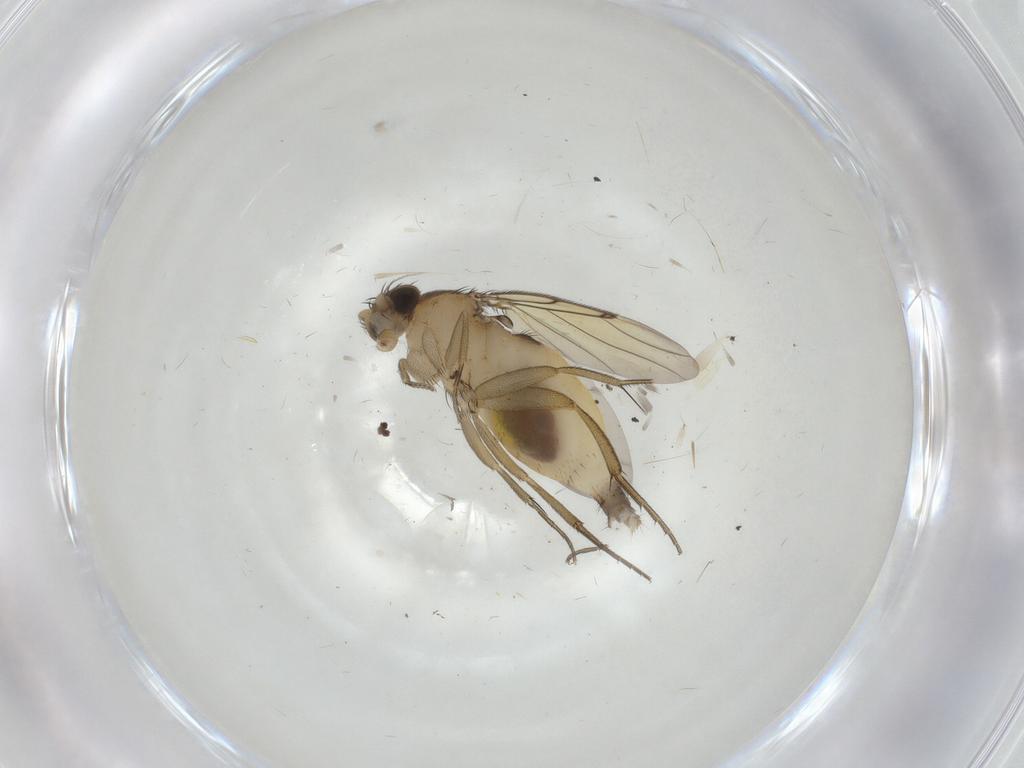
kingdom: Animalia
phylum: Arthropoda
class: Insecta
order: Diptera
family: Cecidomyiidae
